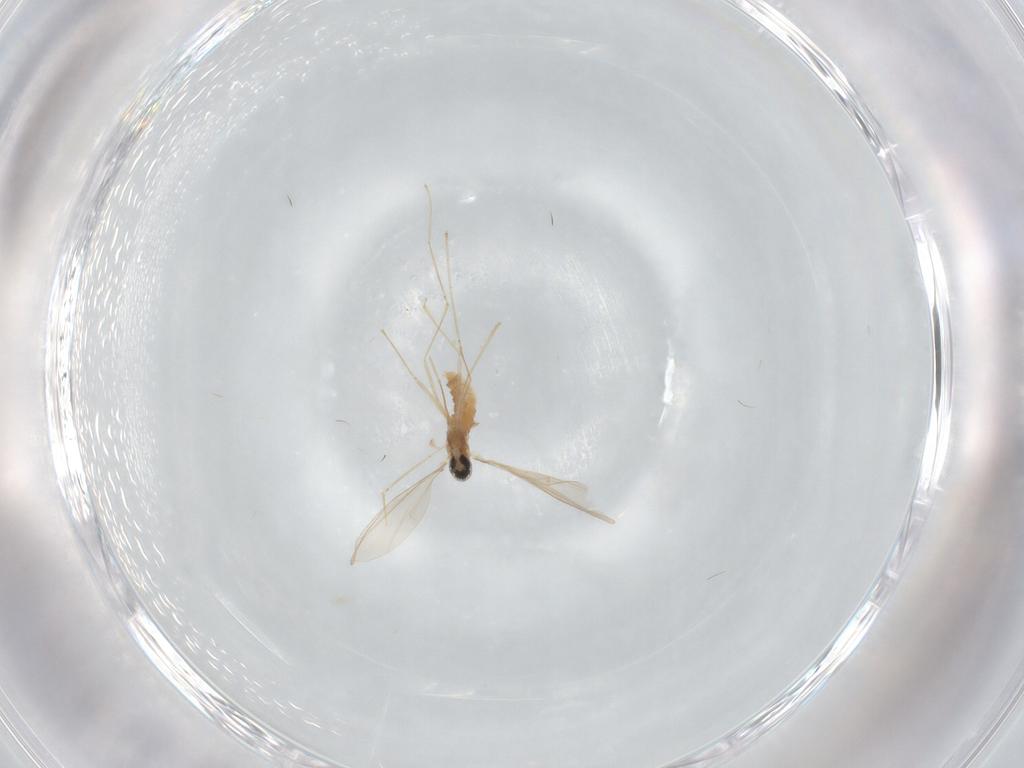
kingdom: Animalia
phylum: Arthropoda
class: Insecta
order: Diptera
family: Cecidomyiidae
